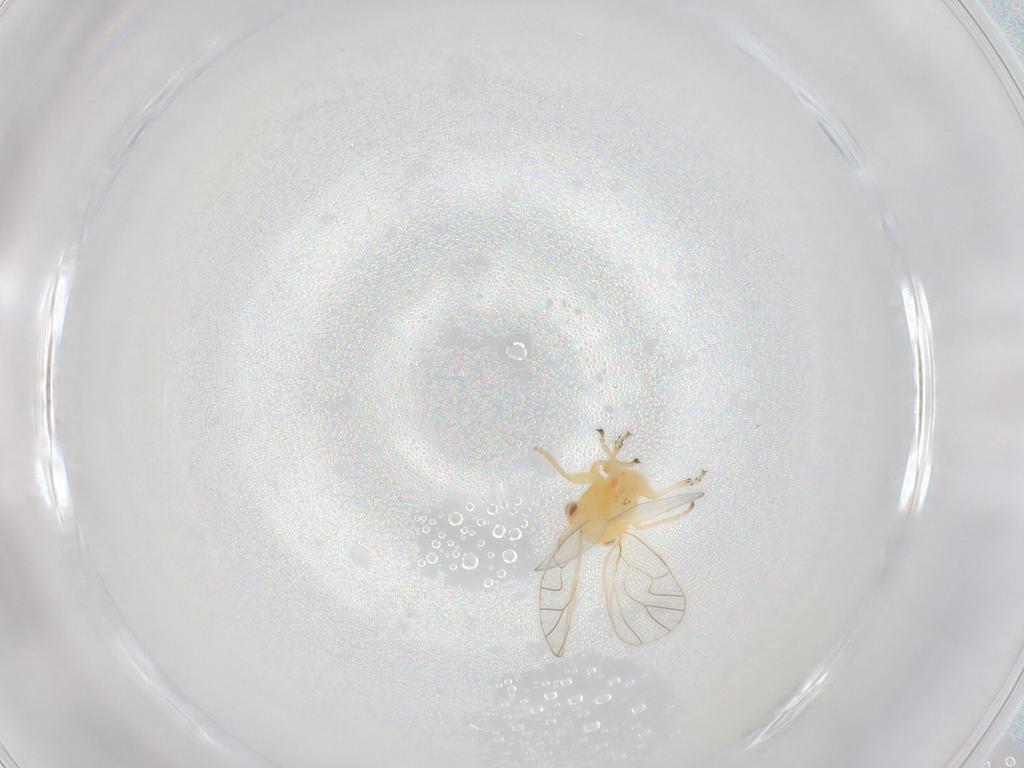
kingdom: Animalia
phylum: Arthropoda
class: Insecta
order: Hemiptera
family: Psyllidae
